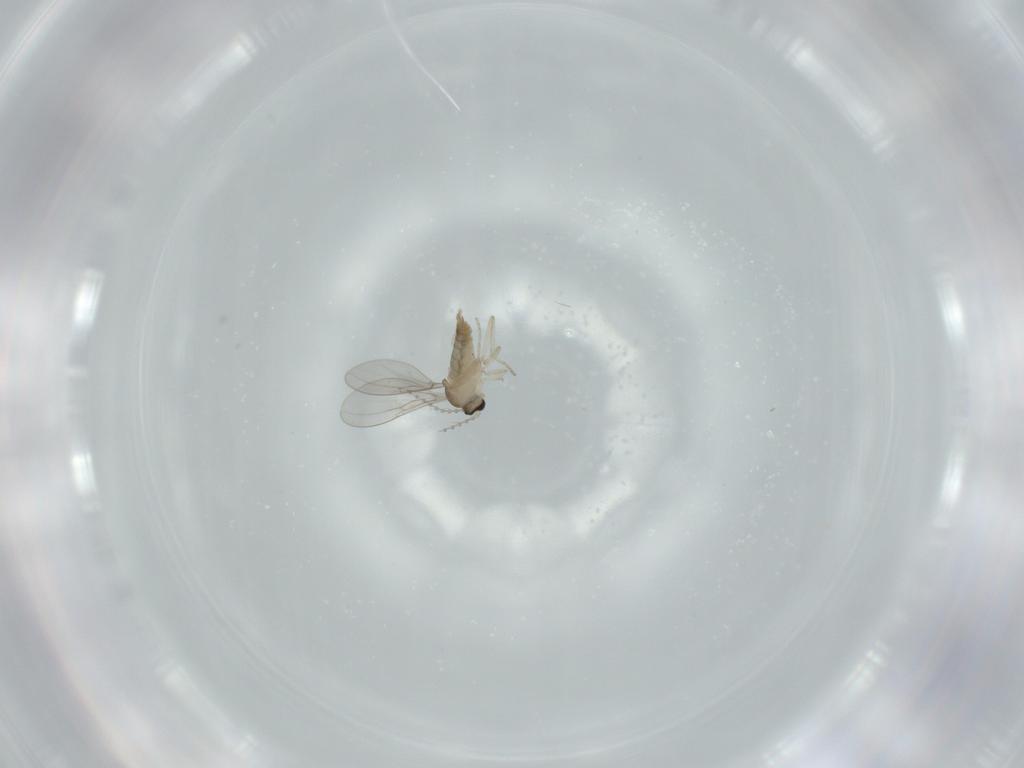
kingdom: Animalia
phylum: Arthropoda
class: Insecta
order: Diptera
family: Cecidomyiidae
